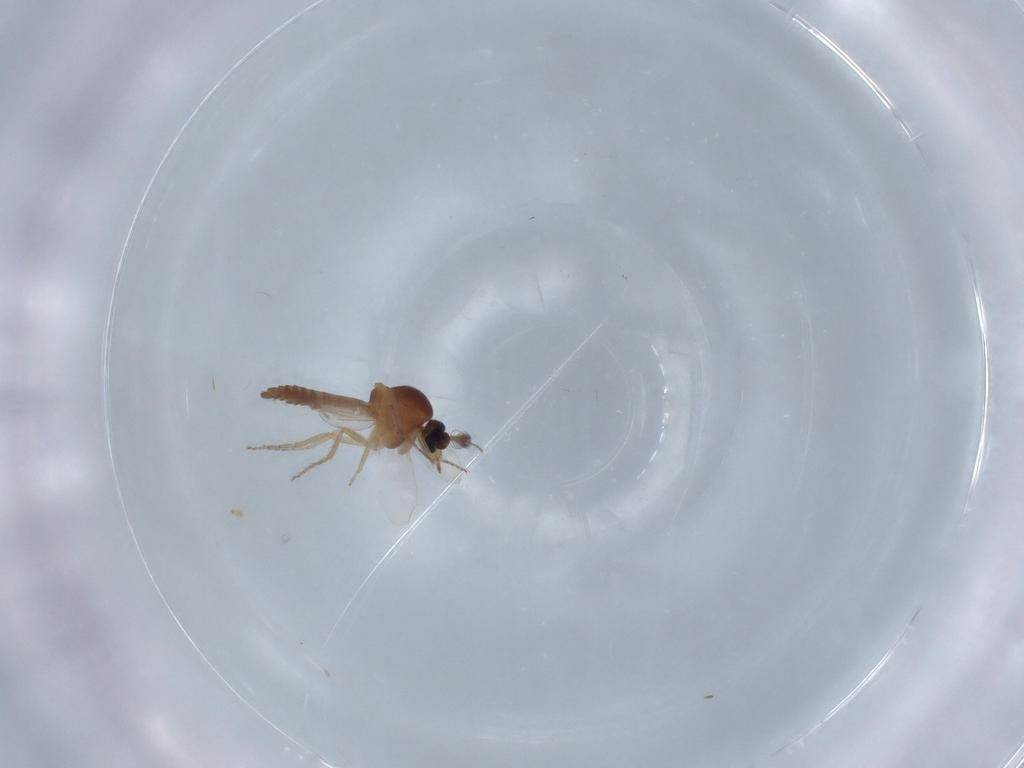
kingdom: Animalia
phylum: Arthropoda
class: Insecta
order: Diptera
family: Ceratopogonidae
